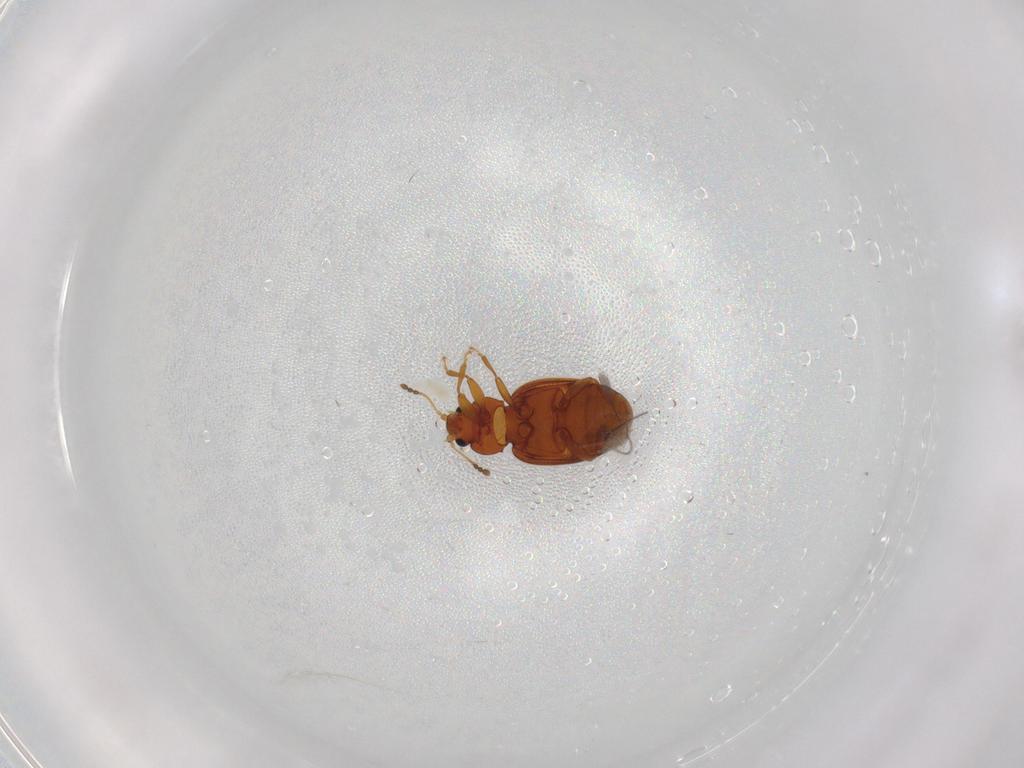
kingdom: Animalia
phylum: Arthropoda
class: Insecta
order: Coleoptera
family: Latridiidae
